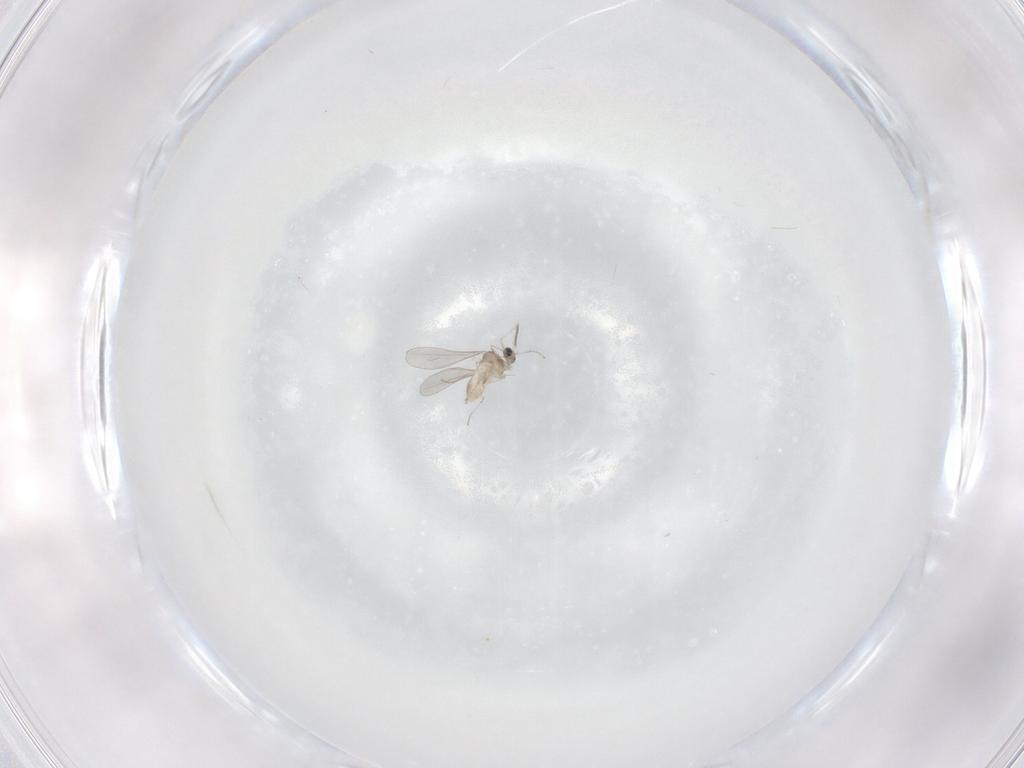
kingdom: Animalia
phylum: Arthropoda
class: Insecta
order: Diptera
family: Cecidomyiidae
